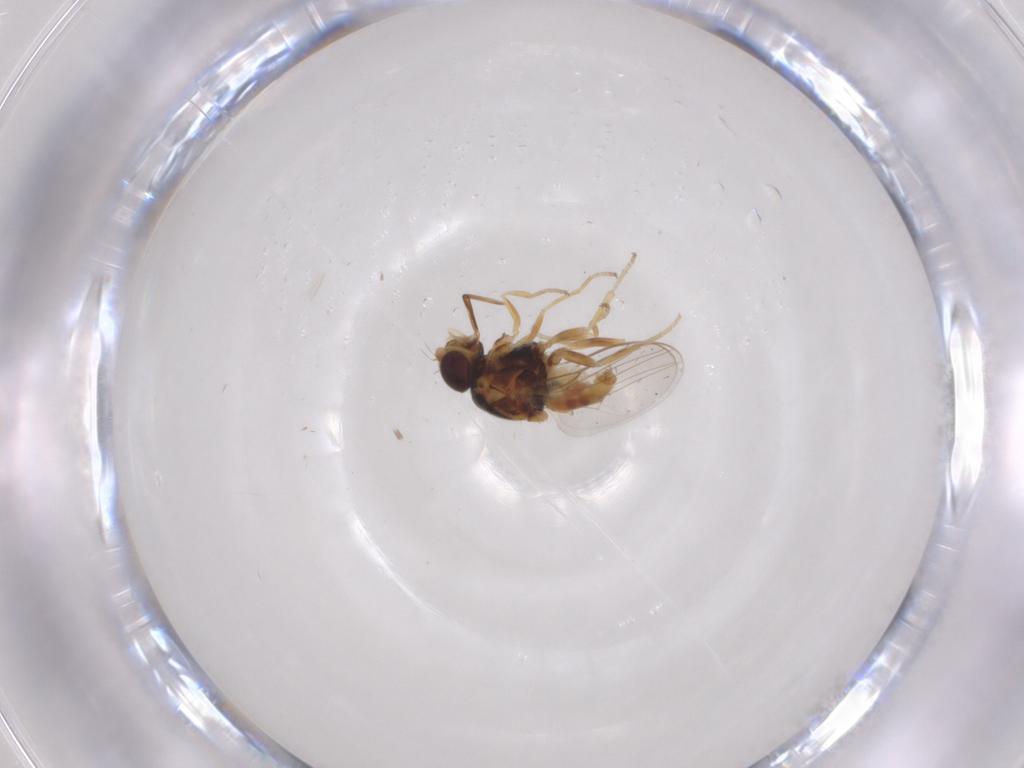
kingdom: Animalia
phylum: Arthropoda
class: Insecta
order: Diptera
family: Chloropidae
